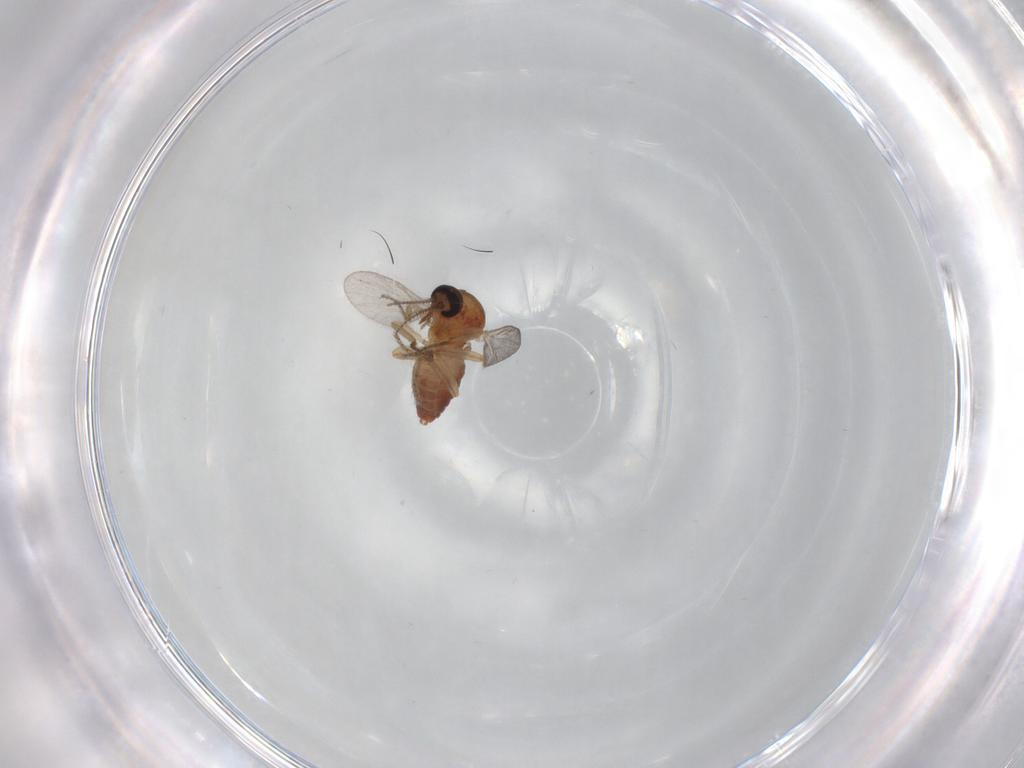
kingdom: Animalia
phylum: Arthropoda
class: Insecta
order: Diptera
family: Ceratopogonidae
